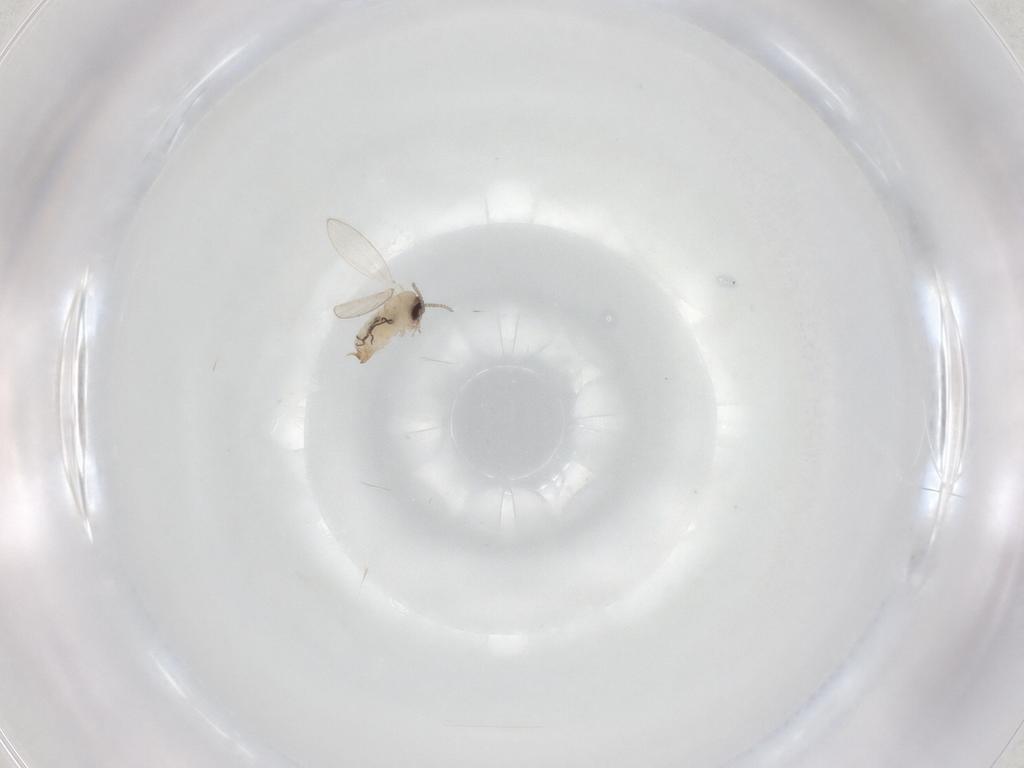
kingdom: Animalia
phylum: Arthropoda
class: Insecta
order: Diptera
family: Psychodidae
